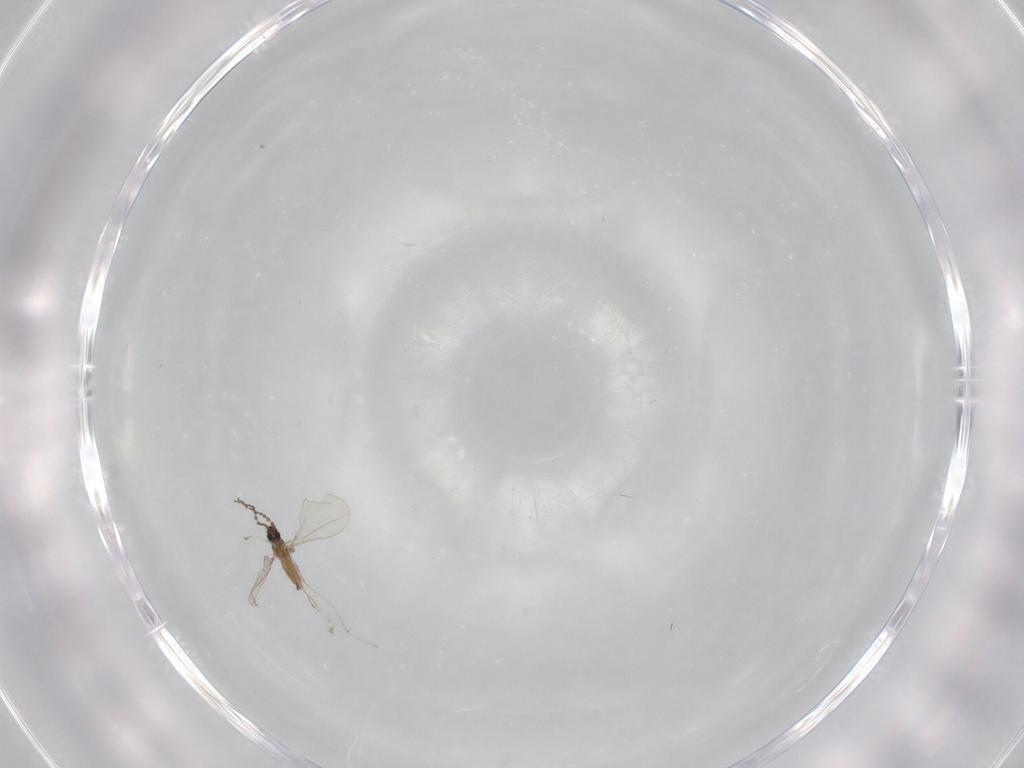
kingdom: Animalia
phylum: Arthropoda
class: Insecta
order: Diptera
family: Cecidomyiidae
